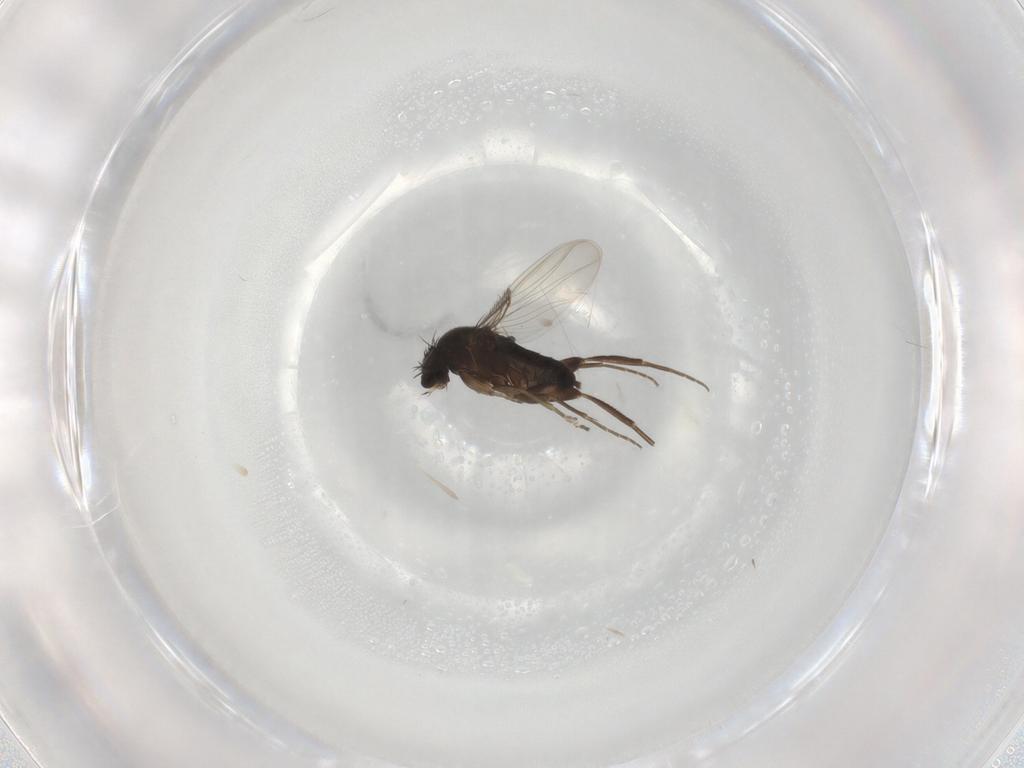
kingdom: Animalia
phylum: Arthropoda
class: Insecta
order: Diptera
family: Phoridae
